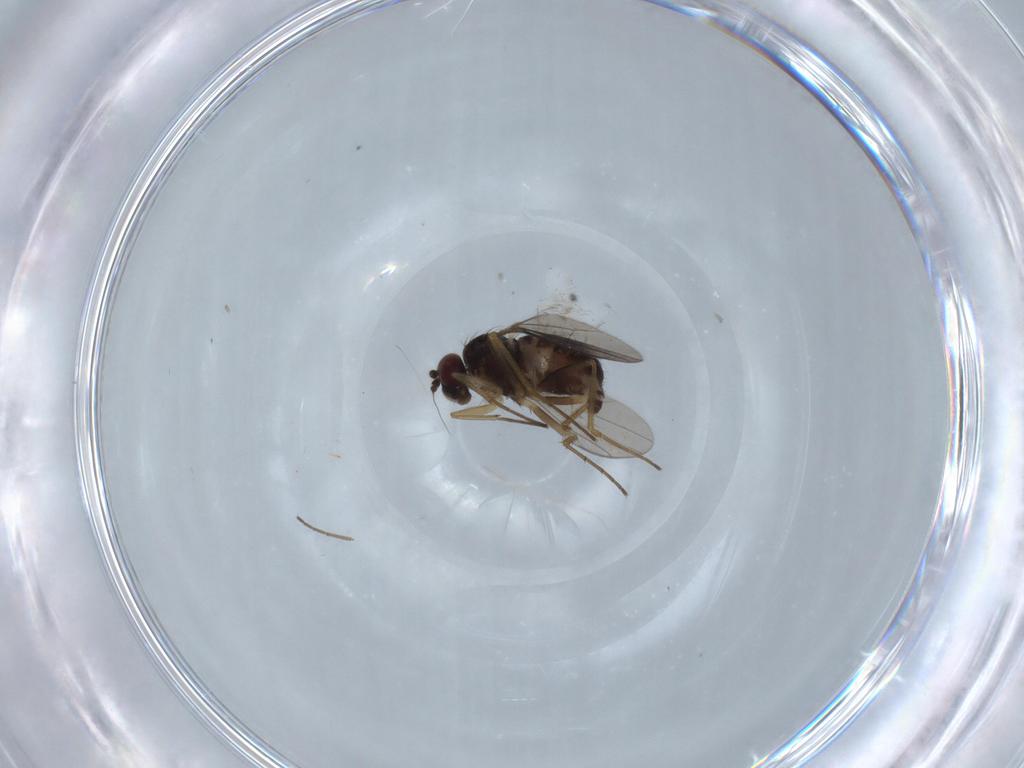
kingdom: Animalia
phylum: Arthropoda
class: Insecta
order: Diptera
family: Dolichopodidae
